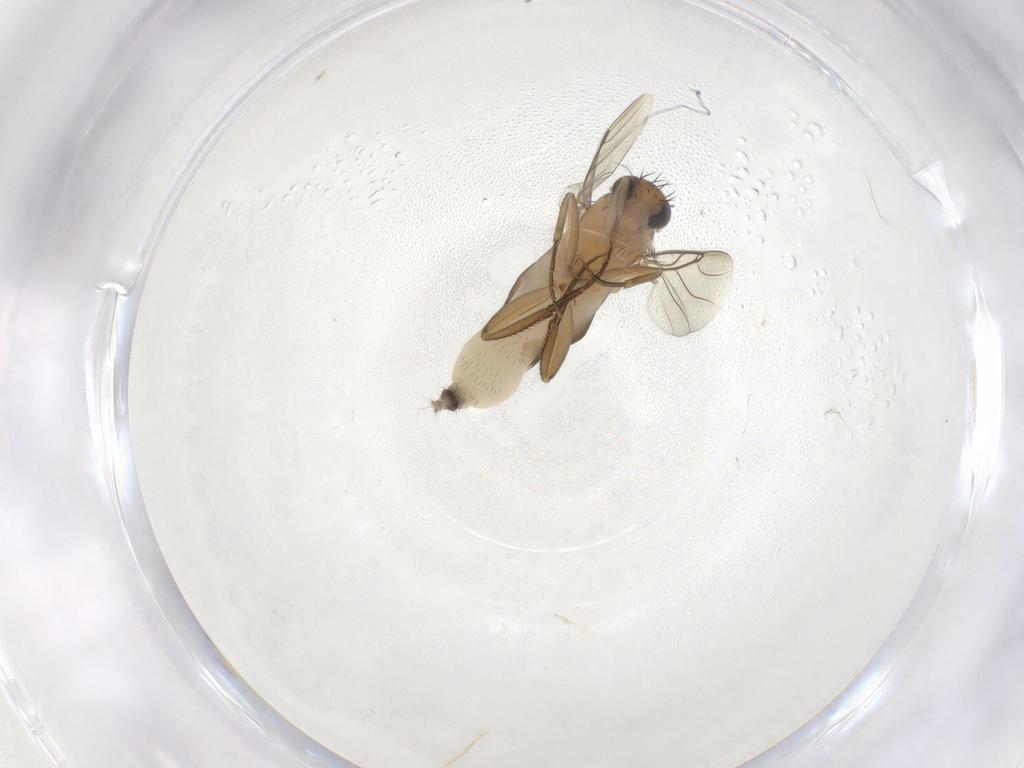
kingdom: Animalia
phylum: Arthropoda
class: Insecta
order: Diptera
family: Phoridae
